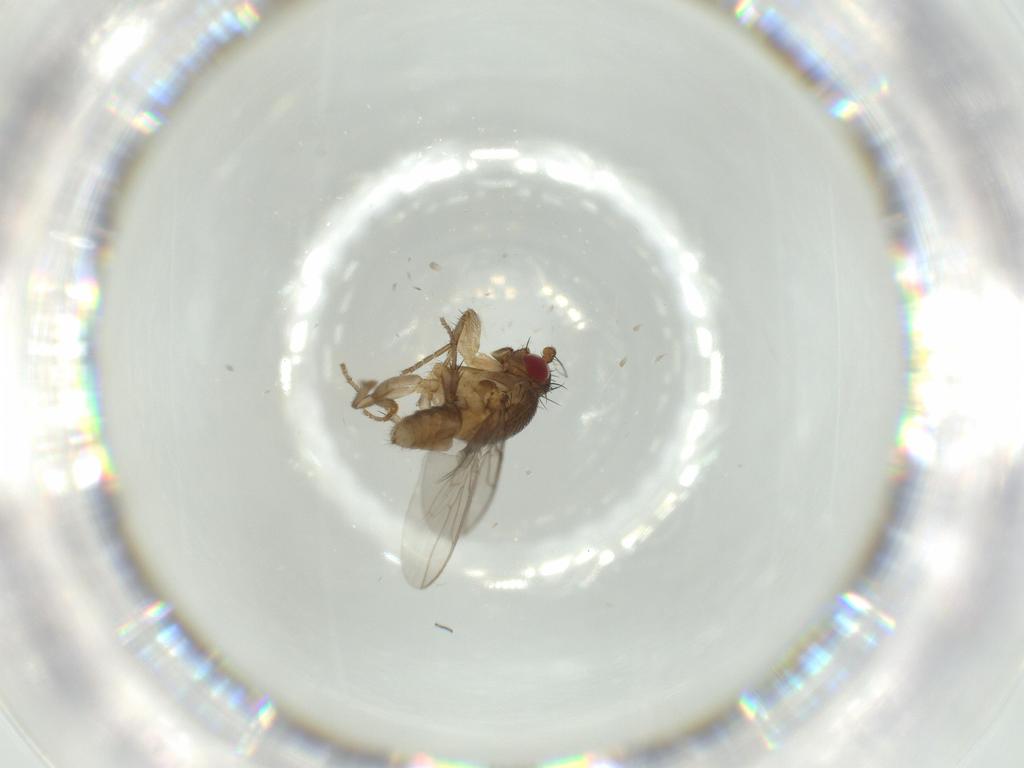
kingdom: Animalia
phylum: Arthropoda
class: Insecta
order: Diptera
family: Sphaeroceridae
